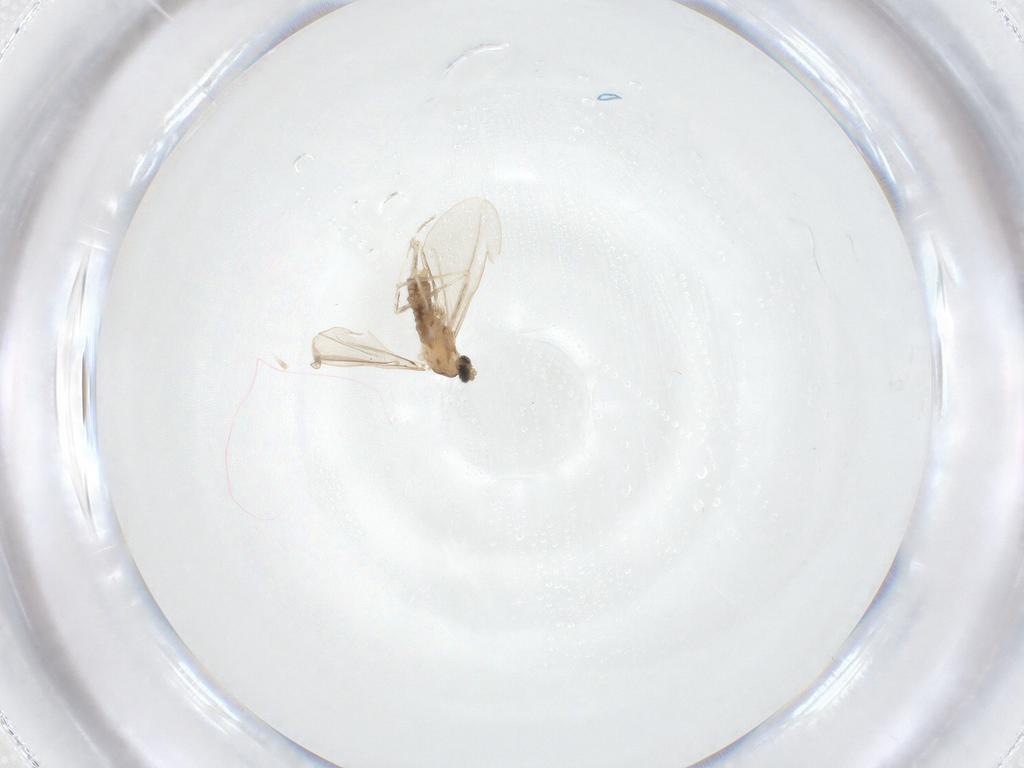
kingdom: Animalia
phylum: Arthropoda
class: Insecta
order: Diptera
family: Cecidomyiidae
